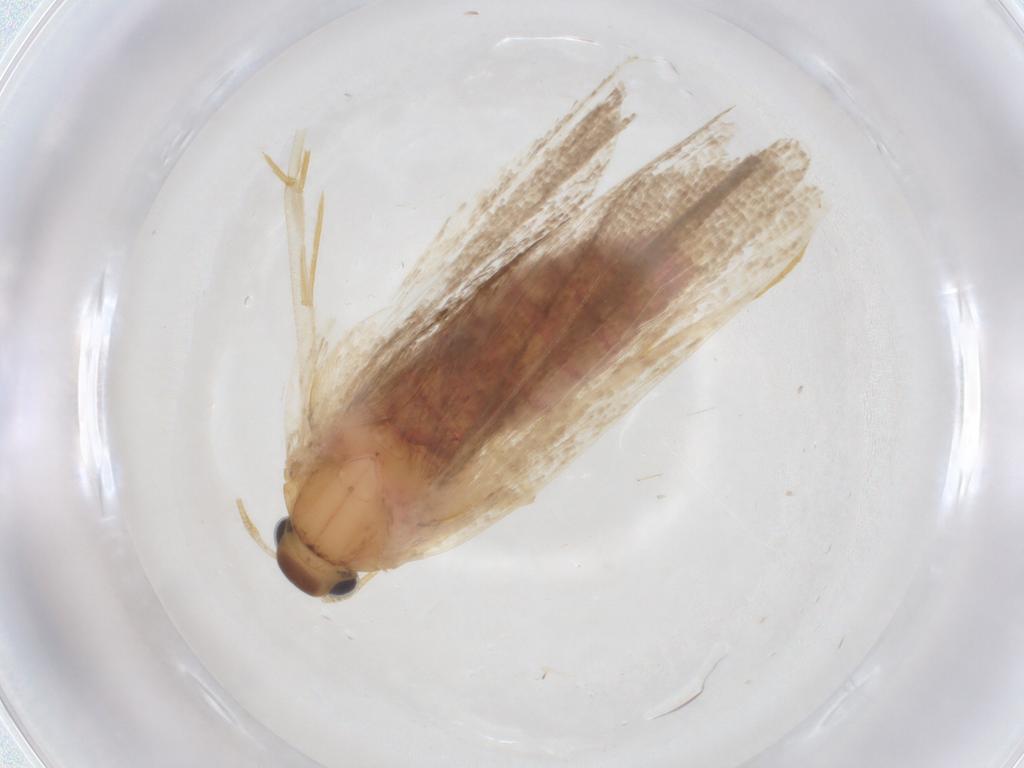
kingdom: Animalia
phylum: Arthropoda
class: Insecta
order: Lepidoptera
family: Autostichidae
